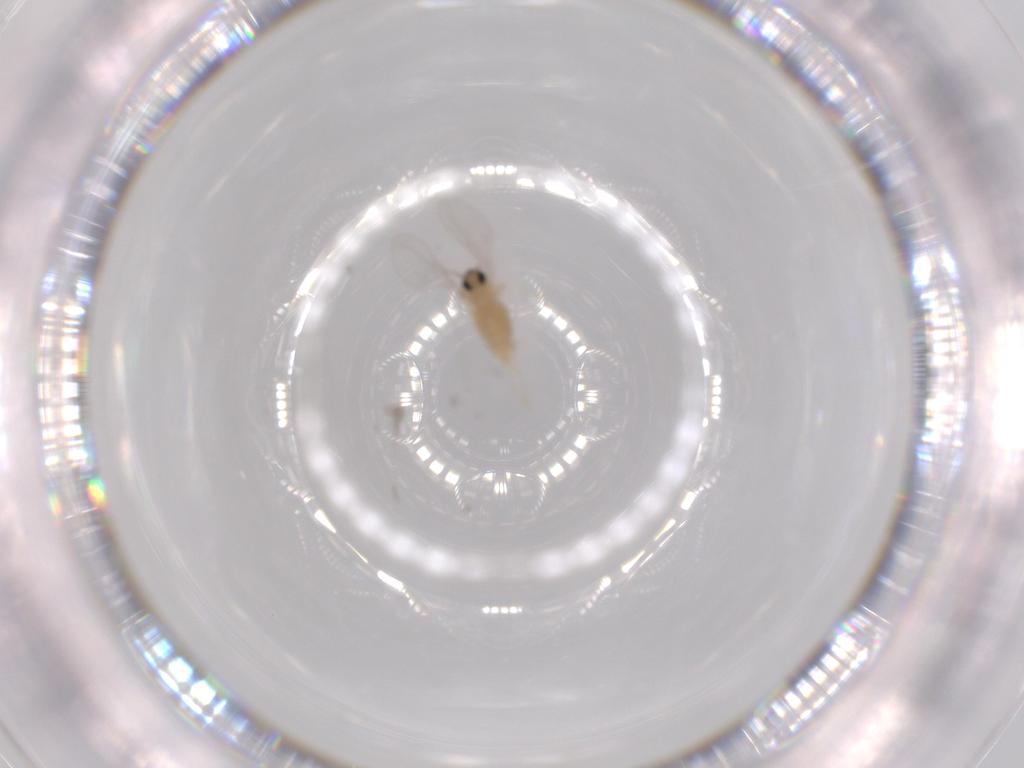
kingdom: Animalia
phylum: Arthropoda
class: Insecta
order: Diptera
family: Cecidomyiidae
